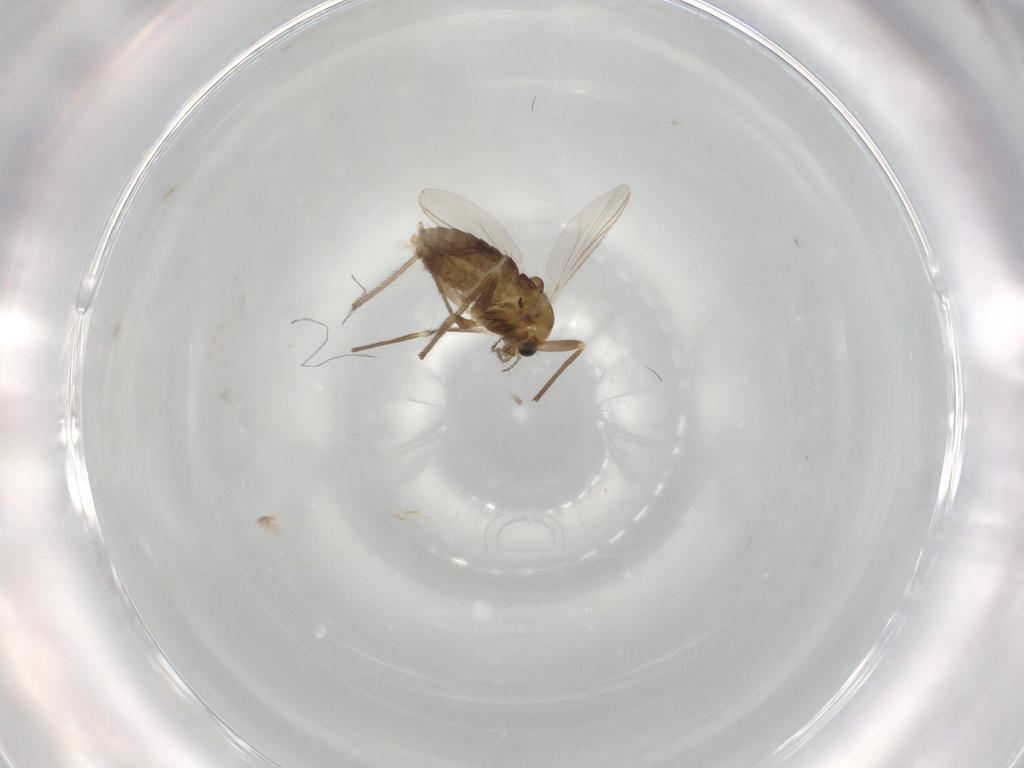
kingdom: Animalia
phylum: Arthropoda
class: Insecta
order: Diptera
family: Chironomidae
